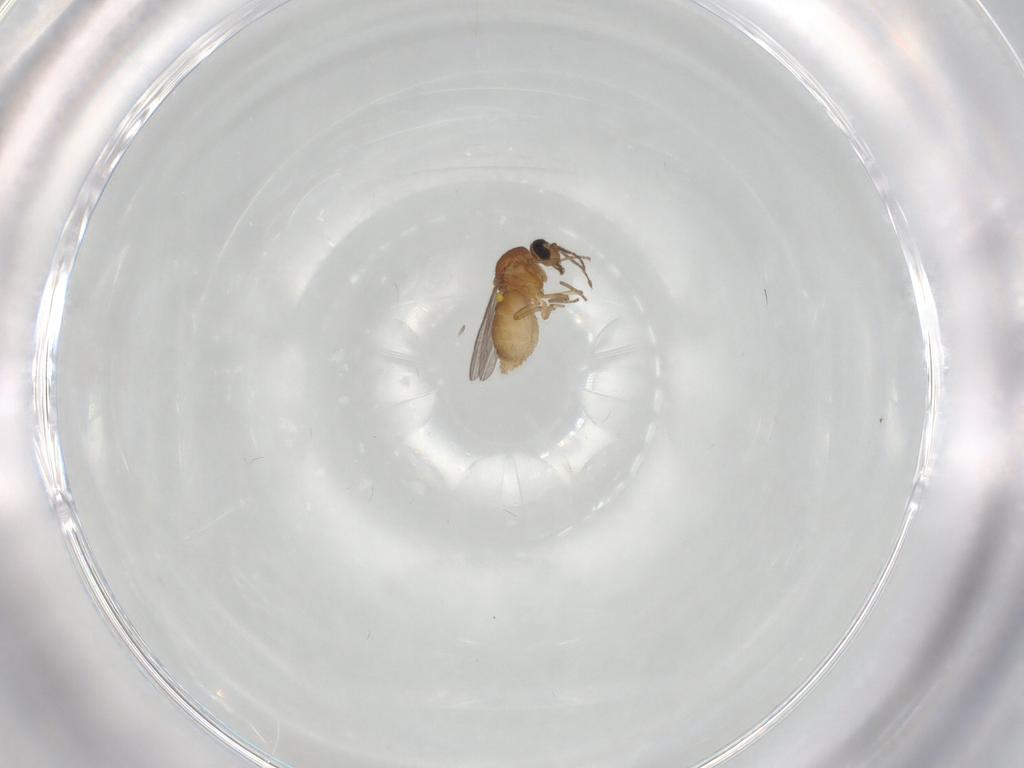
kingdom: Animalia
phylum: Arthropoda
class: Insecta
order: Diptera
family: Ceratopogonidae
